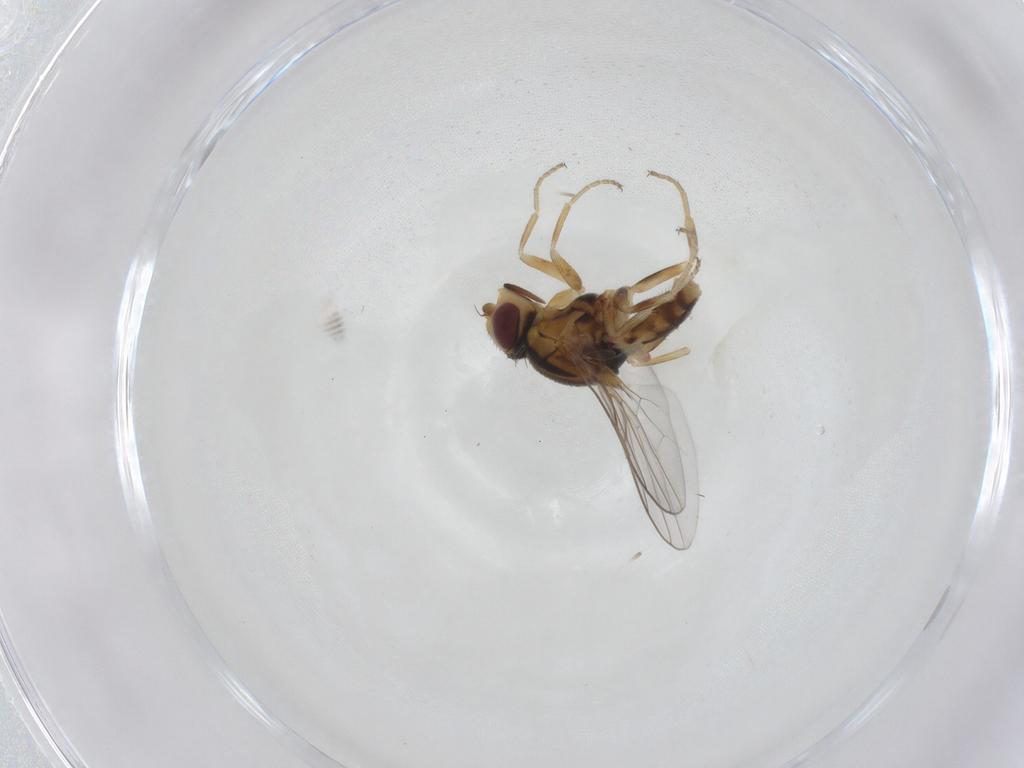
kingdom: Animalia
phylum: Arthropoda
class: Insecta
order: Diptera
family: Chloropidae
